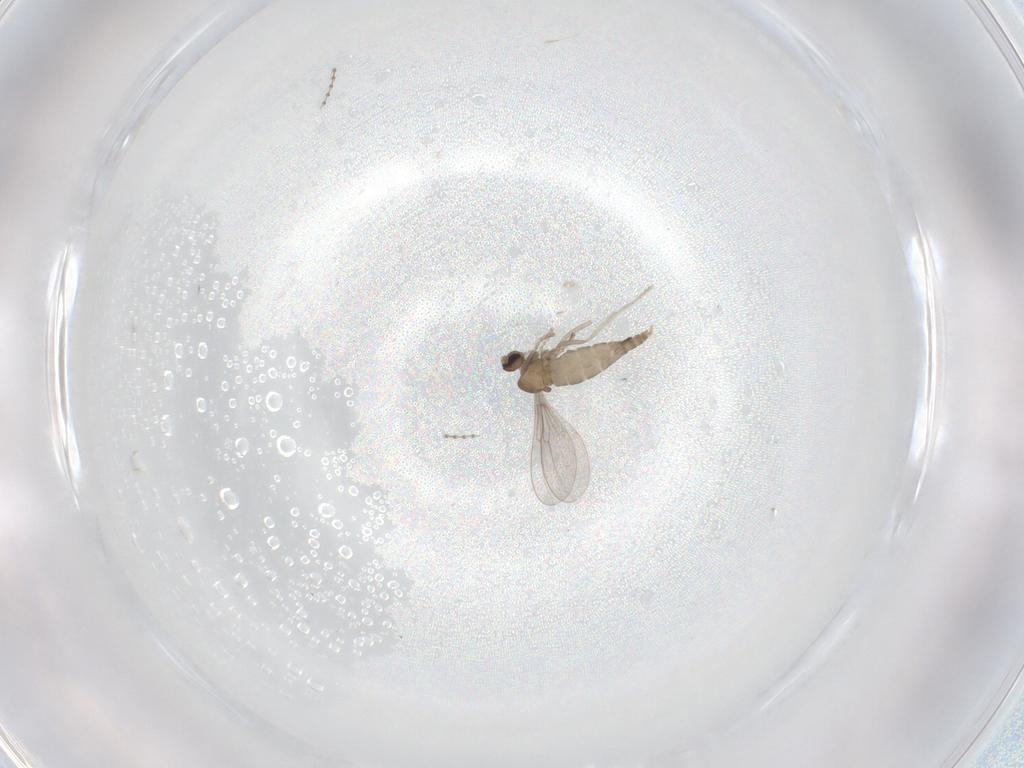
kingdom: Animalia
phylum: Arthropoda
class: Insecta
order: Diptera
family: Cecidomyiidae
